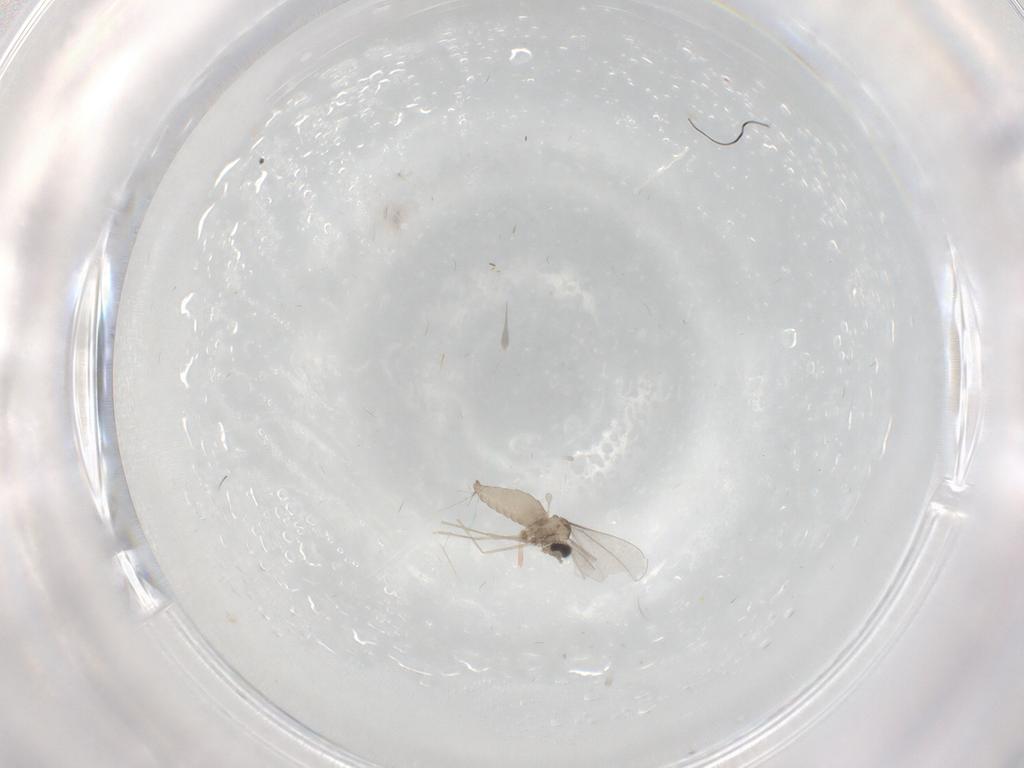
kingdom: Animalia
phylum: Arthropoda
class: Insecta
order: Diptera
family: Cecidomyiidae
